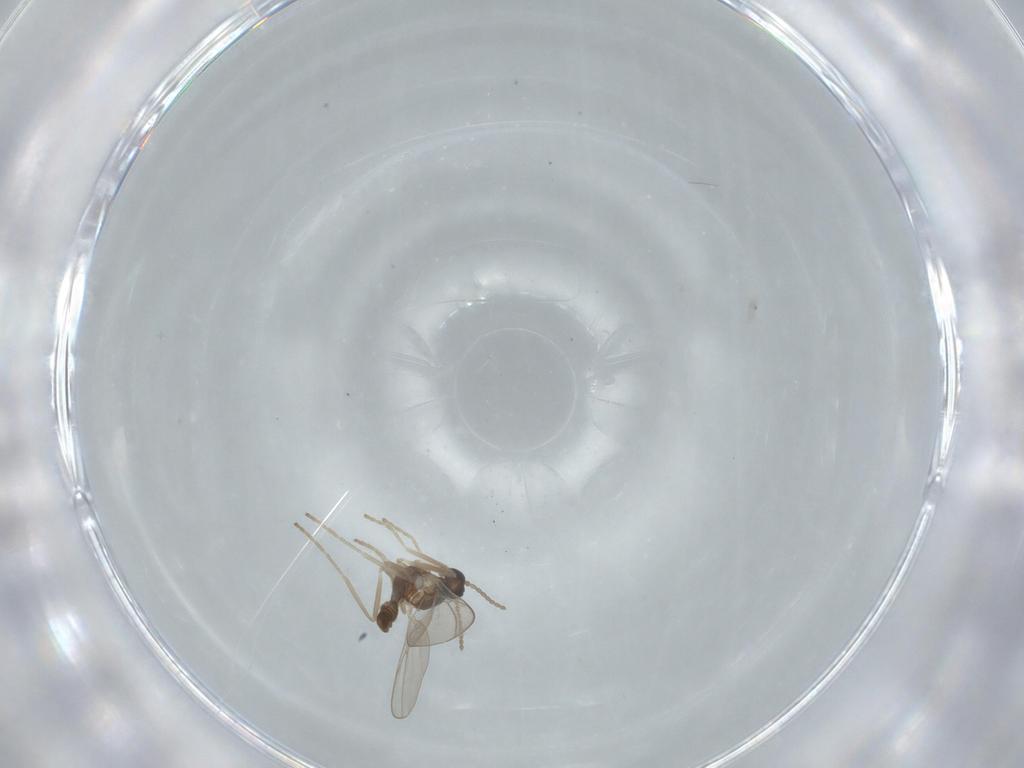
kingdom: Animalia
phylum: Arthropoda
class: Insecta
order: Diptera
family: Cecidomyiidae
